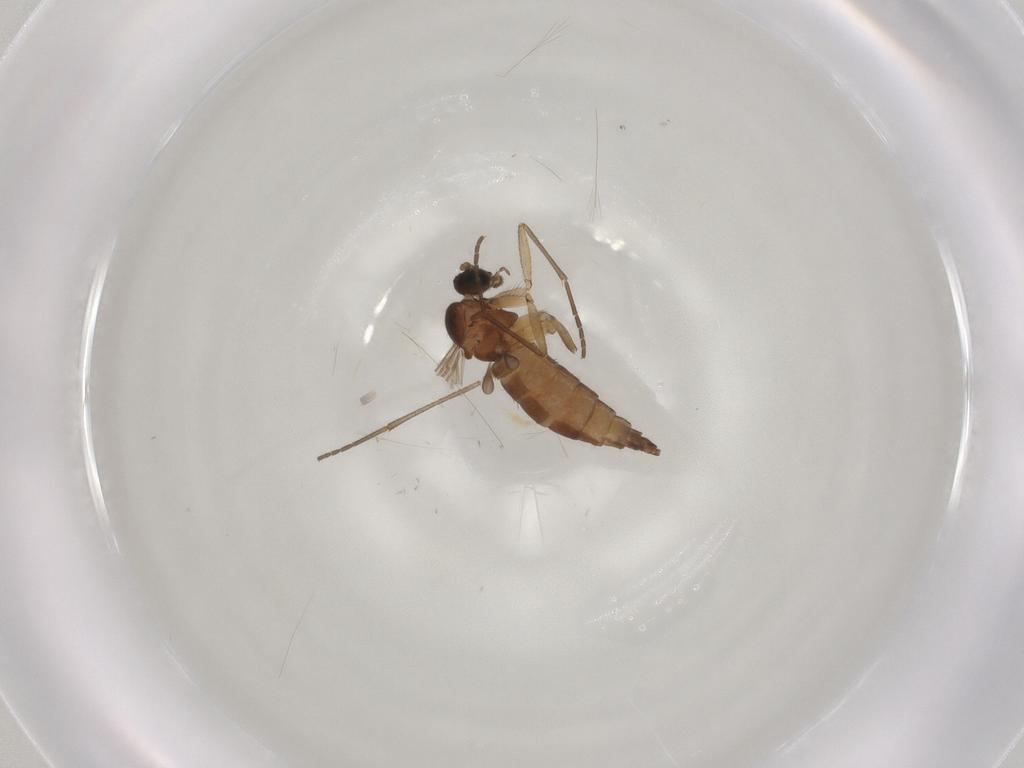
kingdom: Animalia
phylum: Arthropoda
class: Insecta
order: Diptera
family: Sciaridae
